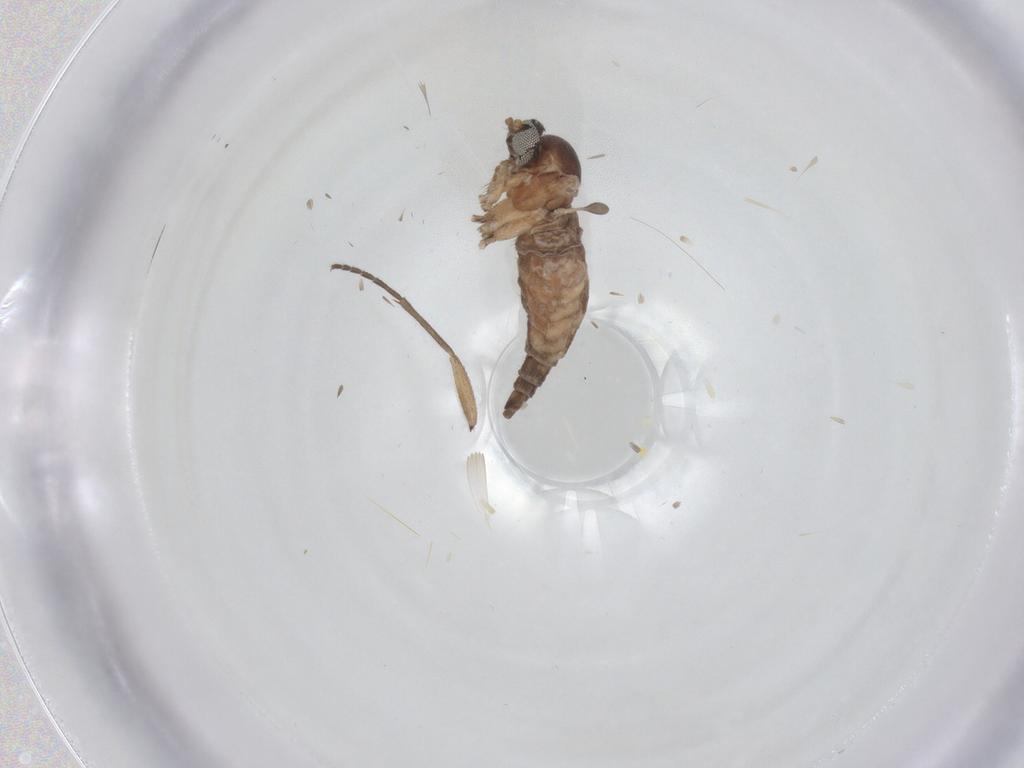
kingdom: Animalia
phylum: Arthropoda
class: Insecta
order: Diptera
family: Sciaridae
